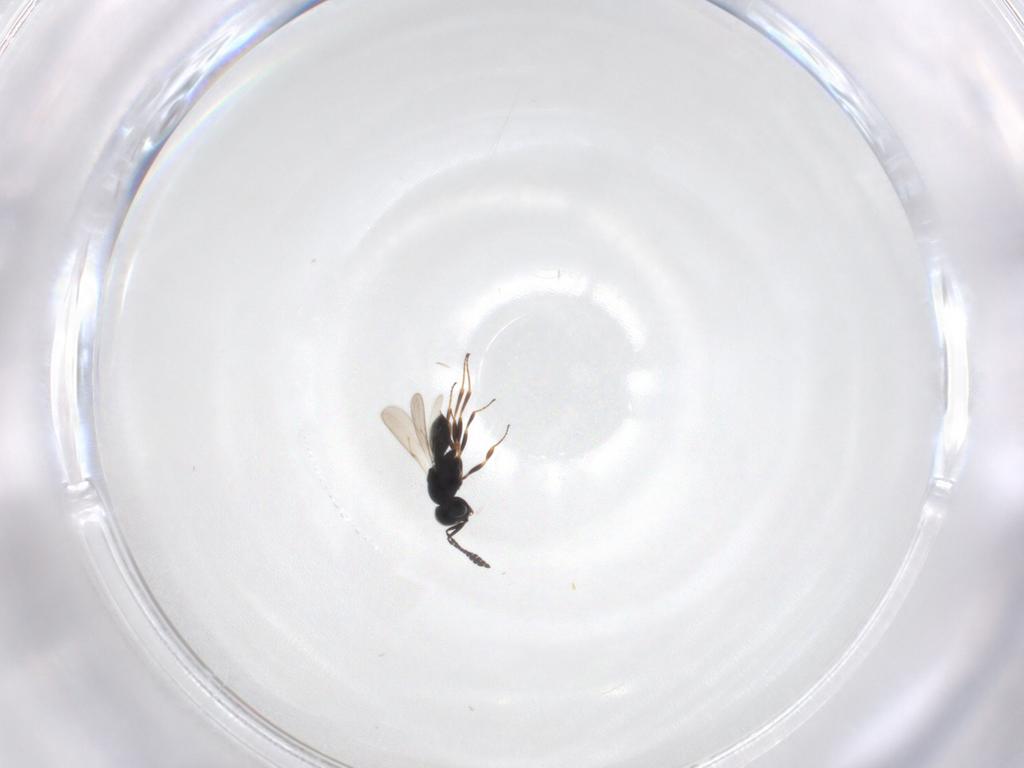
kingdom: Animalia
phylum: Arthropoda
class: Insecta
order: Hymenoptera
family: Scelionidae
